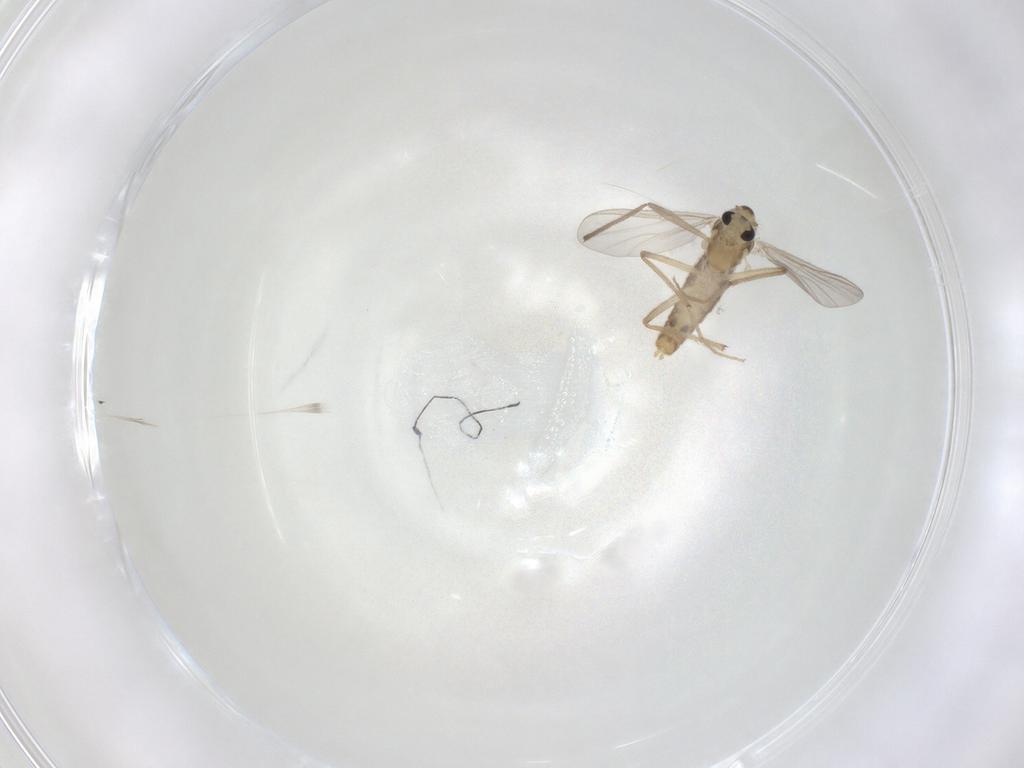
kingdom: Animalia
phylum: Arthropoda
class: Insecta
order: Diptera
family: Chironomidae
